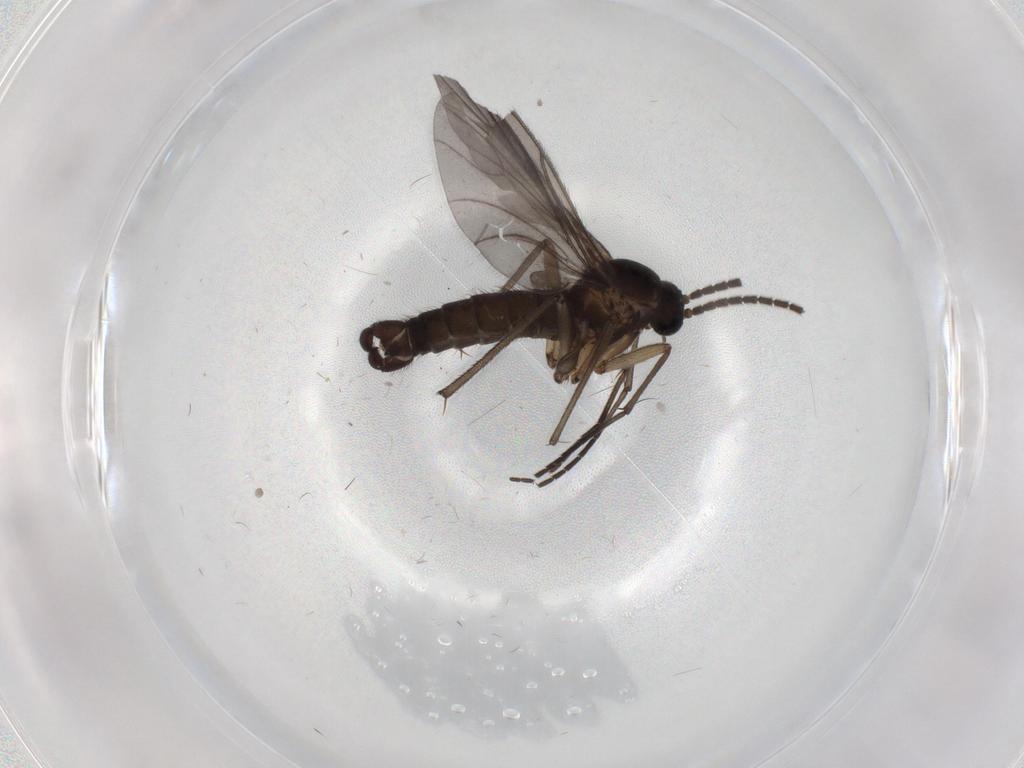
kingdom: Animalia
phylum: Arthropoda
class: Insecta
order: Diptera
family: Sciaridae
